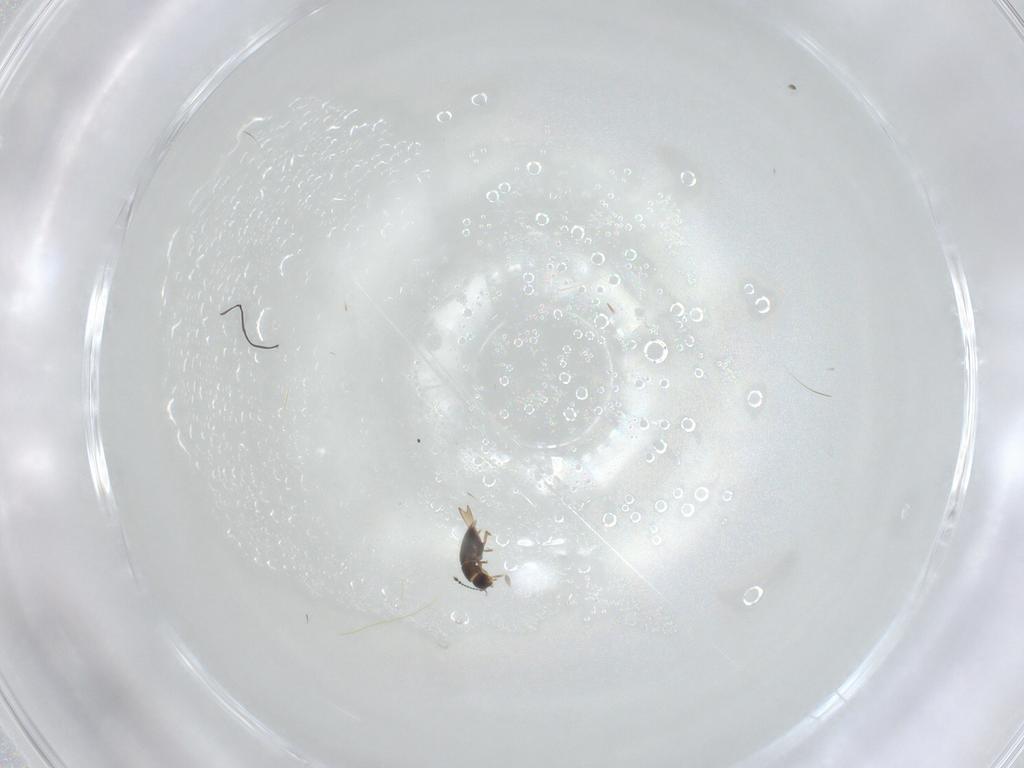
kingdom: Animalia
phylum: Arthropoda
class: Insecta
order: Coleoptera
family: Ptiliidae
